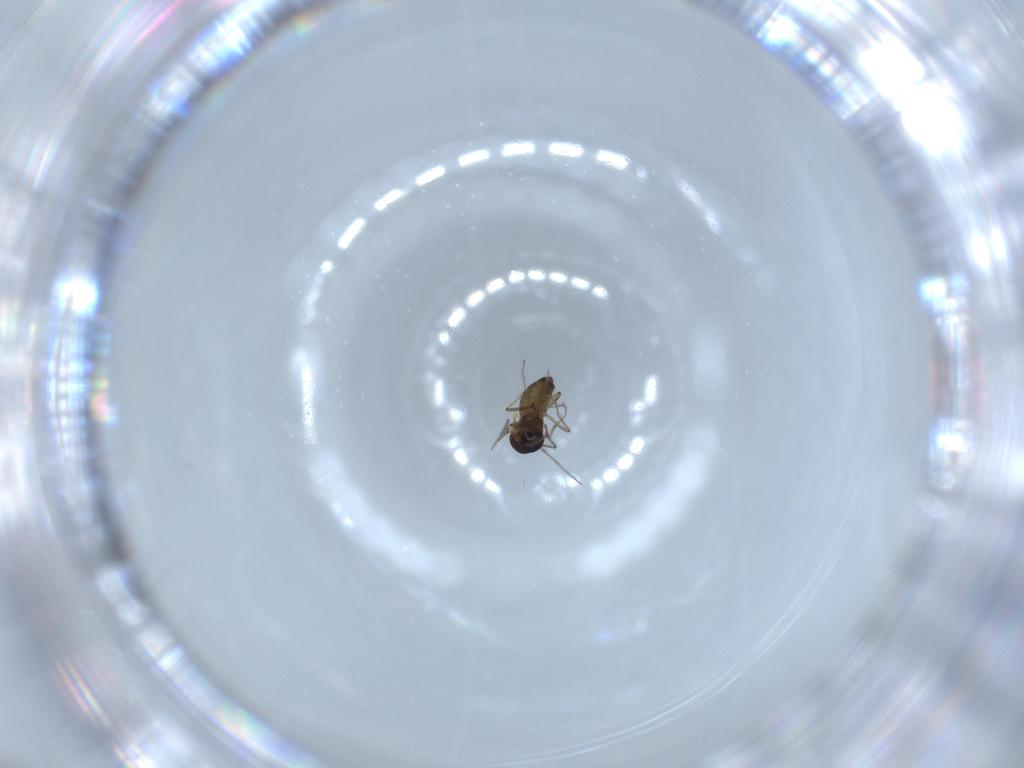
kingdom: Animalia
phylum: Arthropoda
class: Insecta
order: Diptera
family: Ceratopogonidae
